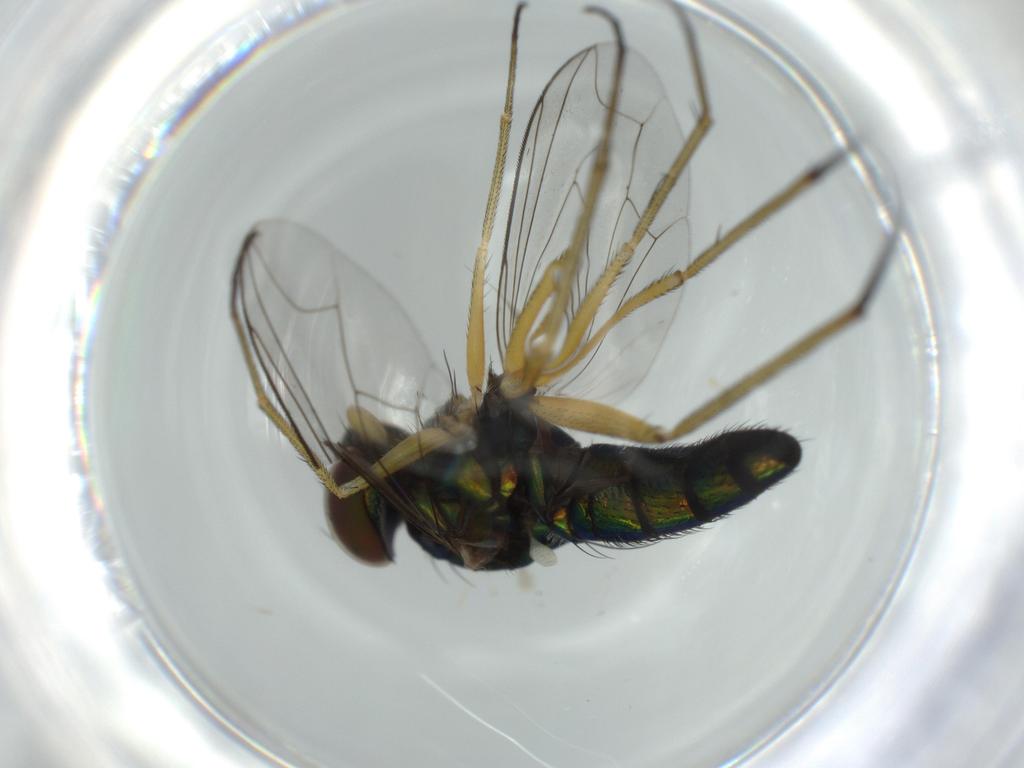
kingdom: Animalia
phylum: Arthropoda
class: Insecta
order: Diptera
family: Dolichopodidae
